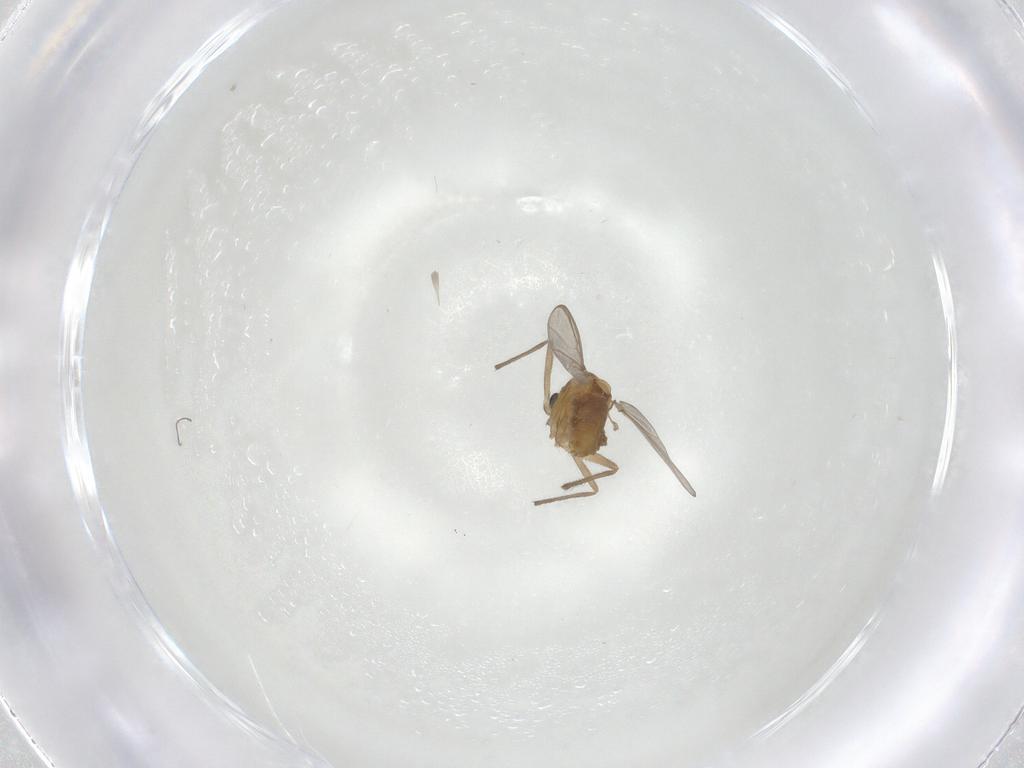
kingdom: Animalia
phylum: Arthropoda
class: Insecta
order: Diptera
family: Chironomidae
